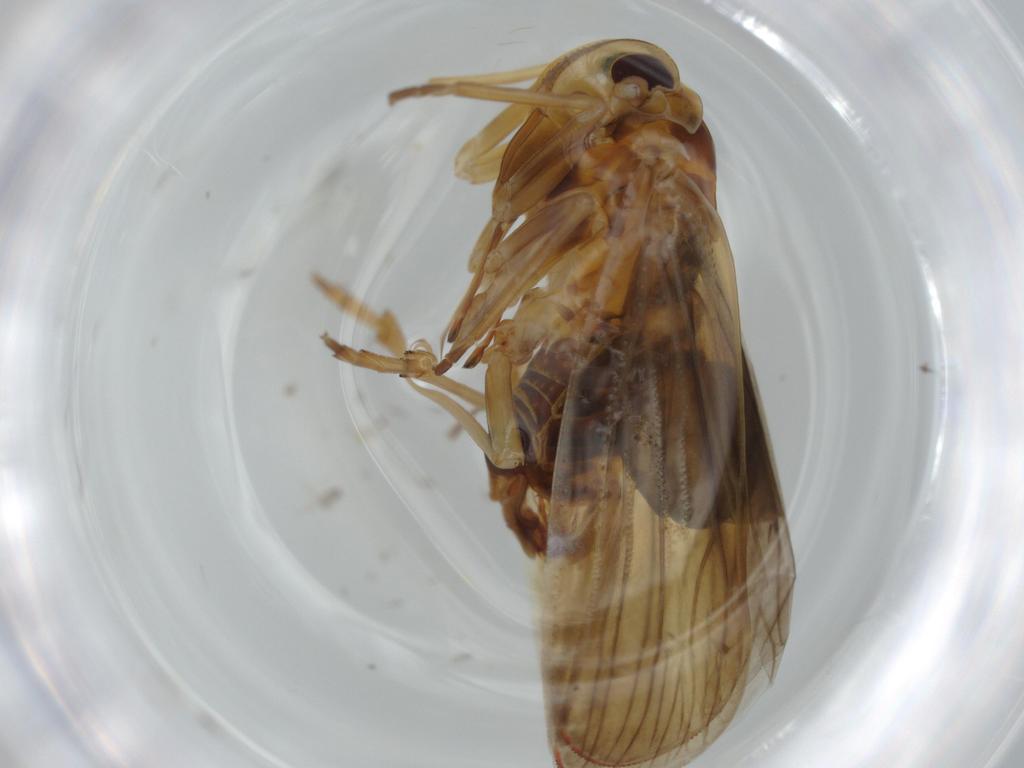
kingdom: Animalia
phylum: Arthropoda
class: Insecta
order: Hemiptera
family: Derbidae
